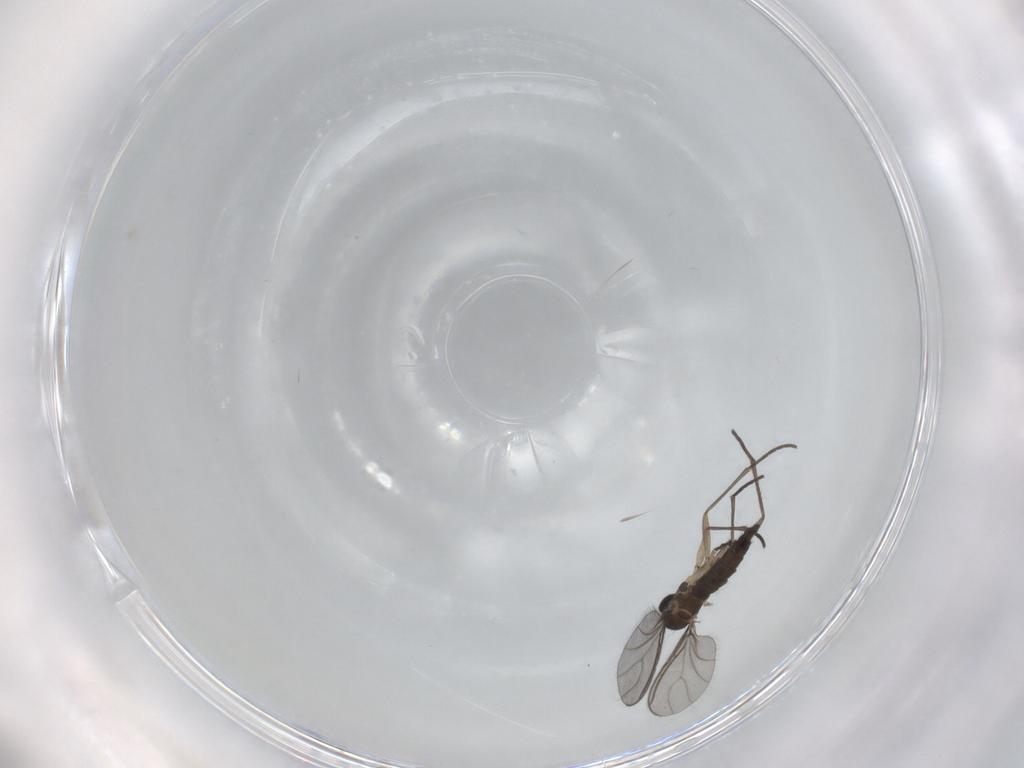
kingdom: Animalia
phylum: Arthropoda
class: Insecta
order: Diptera
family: Sciaridae
